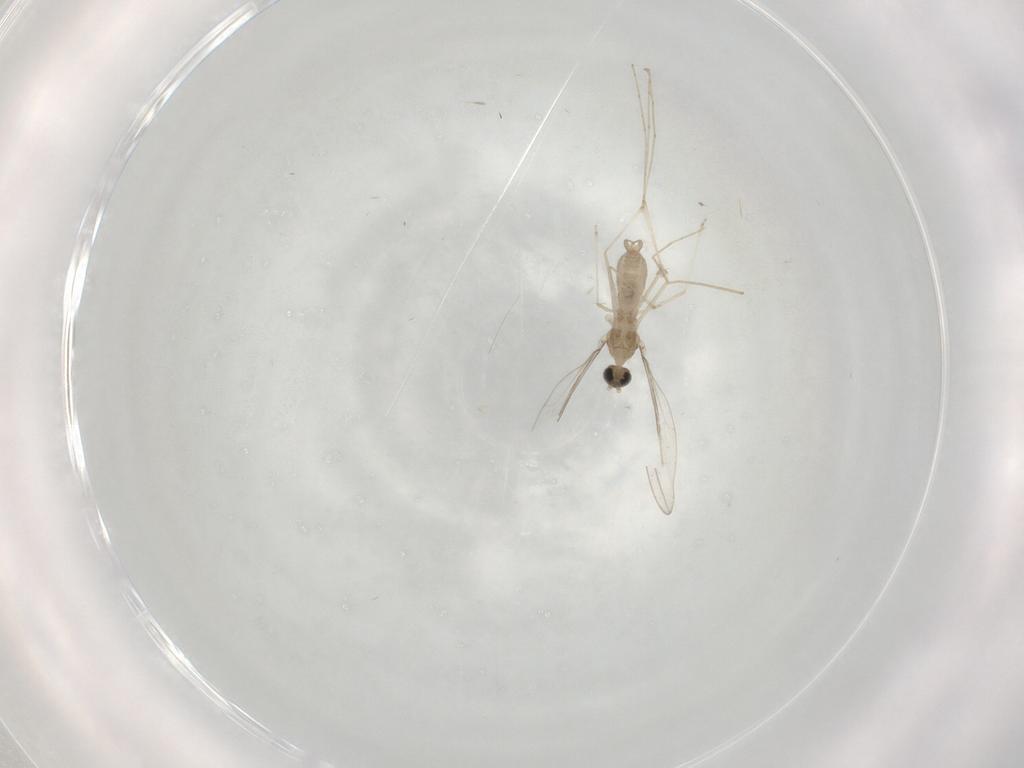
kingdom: Animalia
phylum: Arthropoda
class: Insecta
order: Diptera
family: Cecidomyiidae
